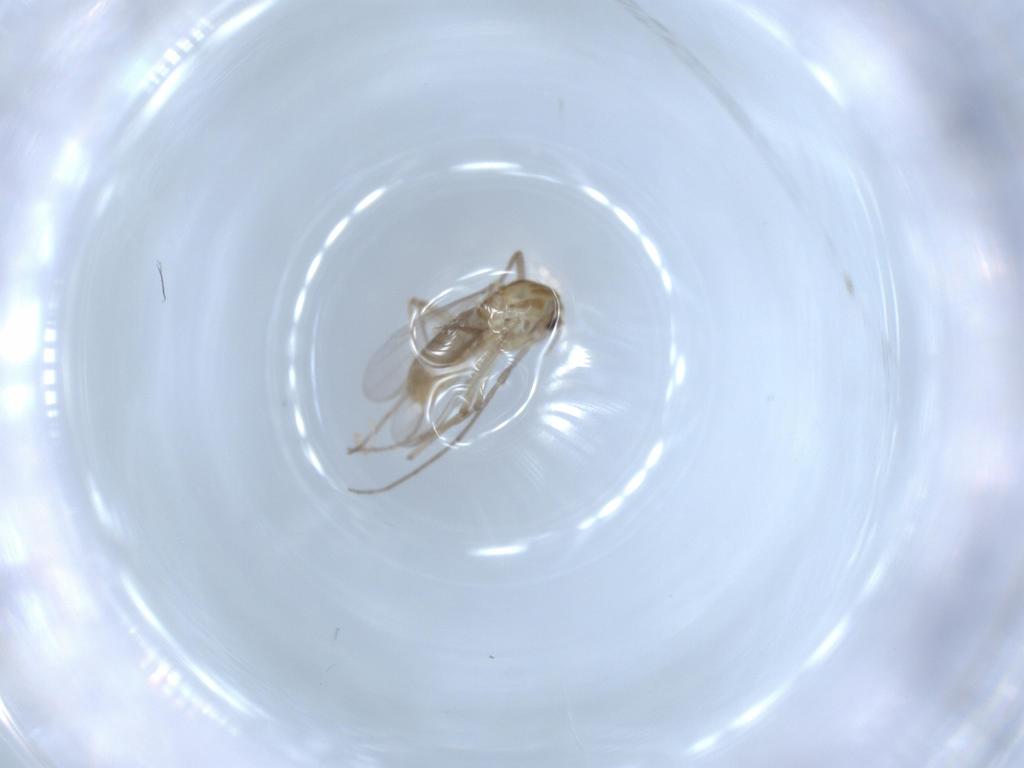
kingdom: Animalia
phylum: Arthropoda
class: Insecta
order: Diptera
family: Chironomidae
